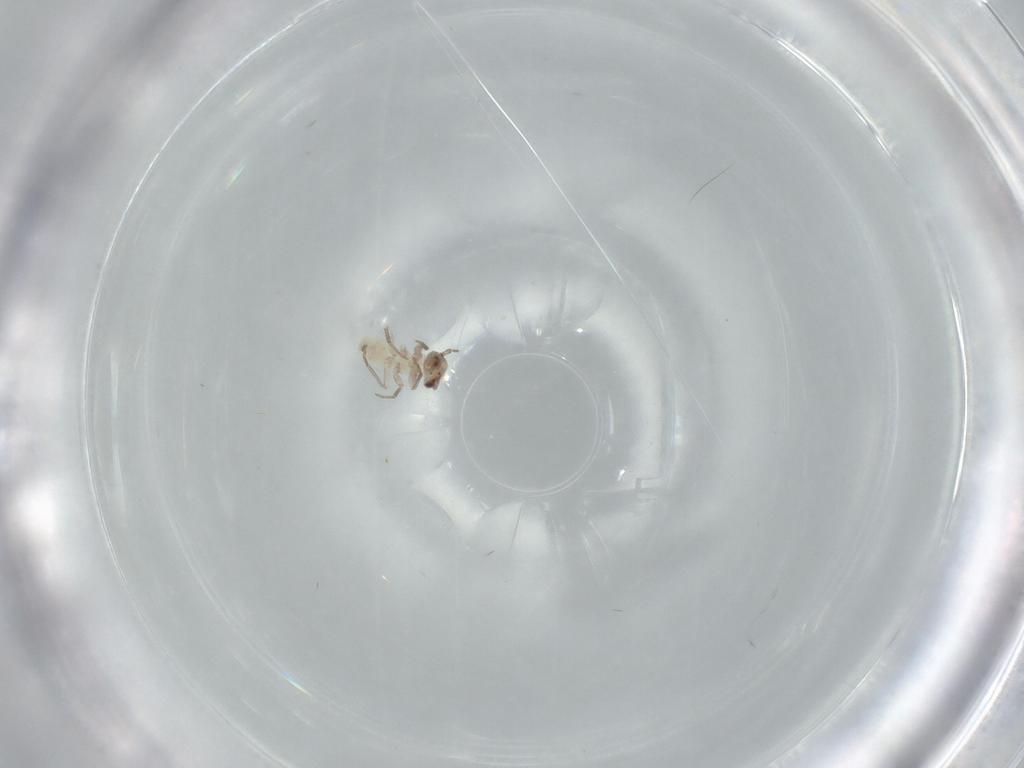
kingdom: Animalia
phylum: Arthropoda
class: Insecta
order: Psocodea
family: Lepidopsocidae
